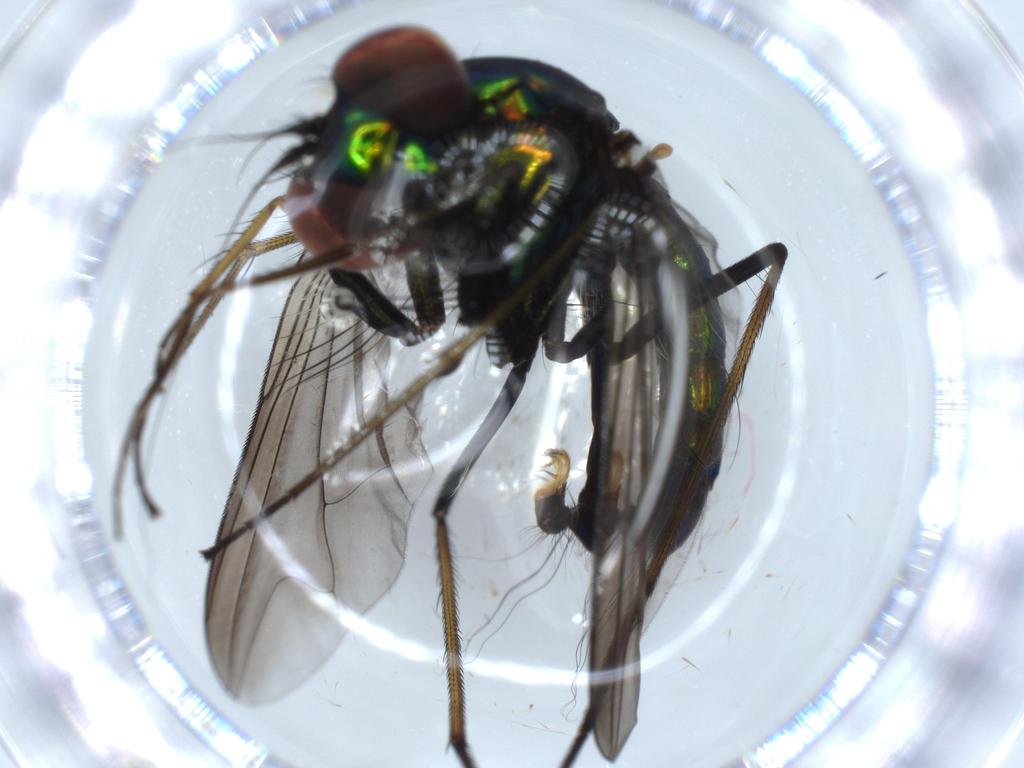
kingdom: Animalia
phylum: Arthropoda
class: Insecta
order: Diptera
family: Dolichopodidae
